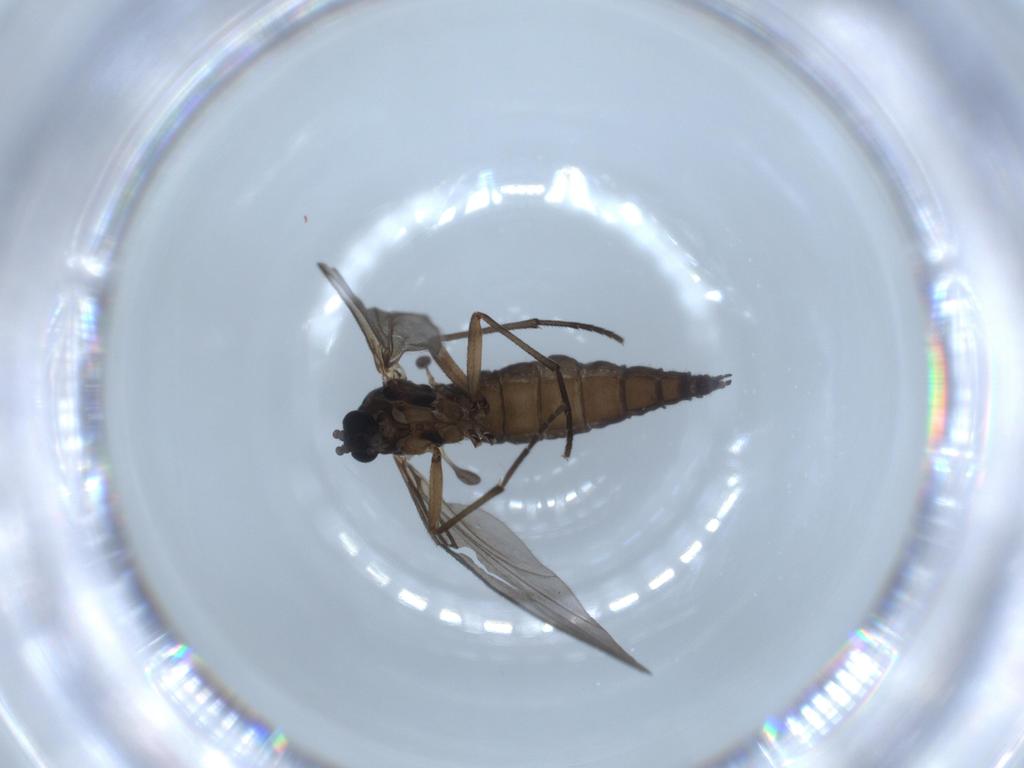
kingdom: Animalia
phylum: Arthropoda
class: Insecta
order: Diptera
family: Sciaridae
